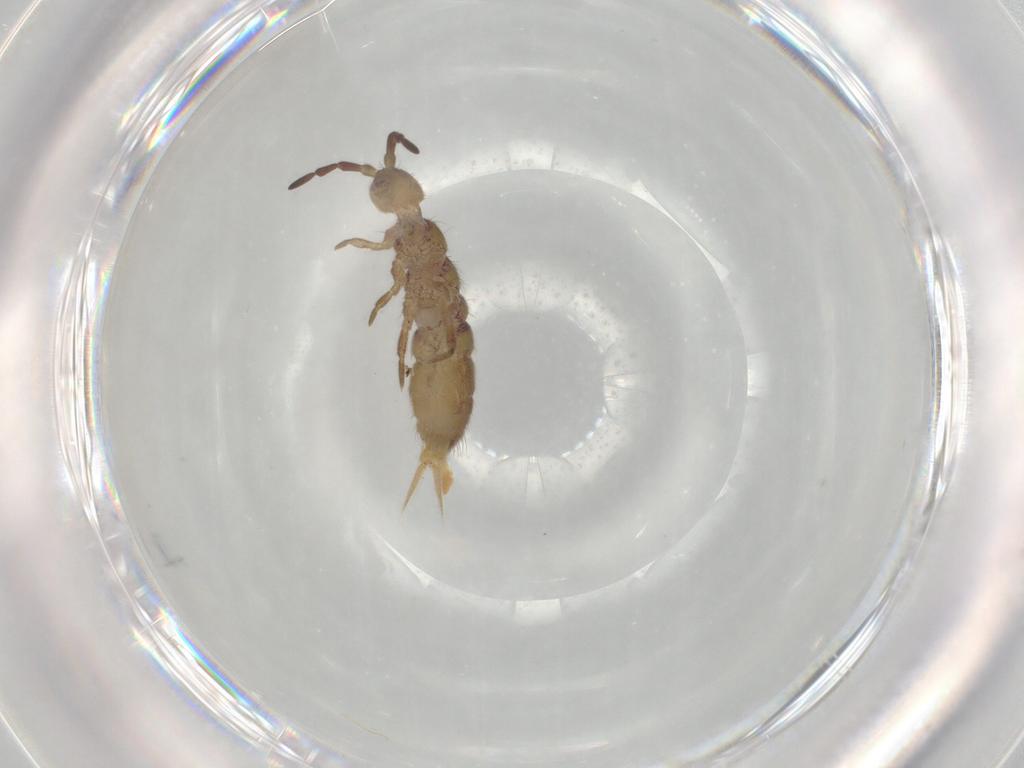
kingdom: Animalia
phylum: Arthropoda
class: Collembola
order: Entomobryomorpha
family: Isotomidae
